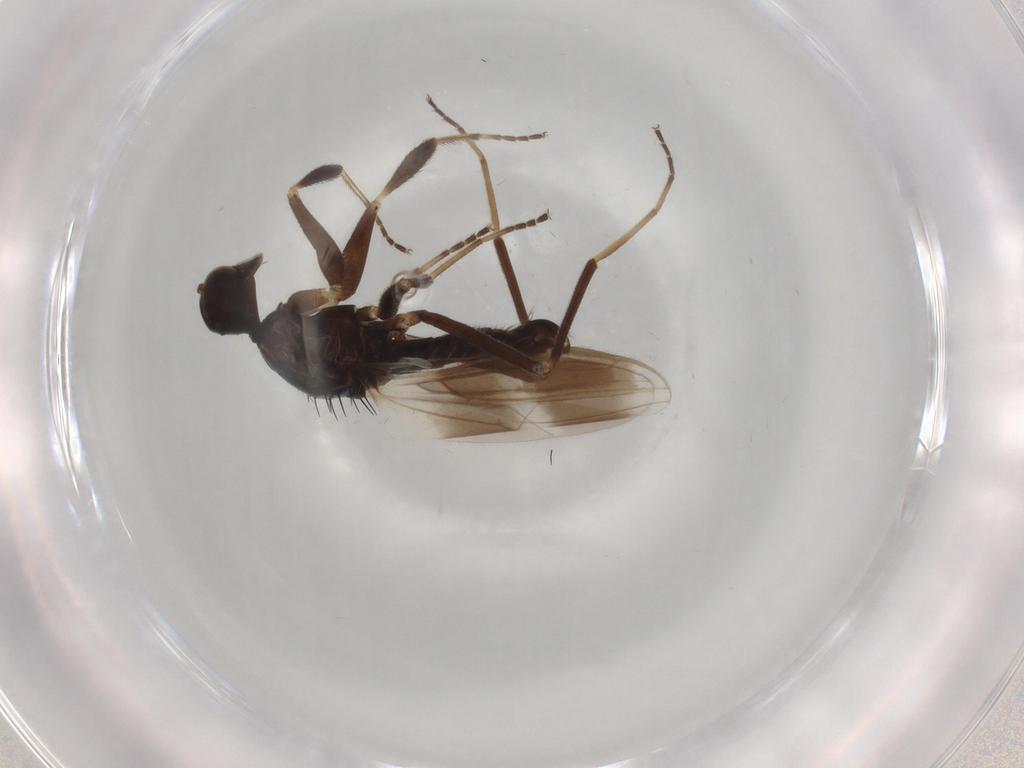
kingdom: Animalia
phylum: Arthropoda
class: Insecta
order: Diptera
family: Hybotidae
